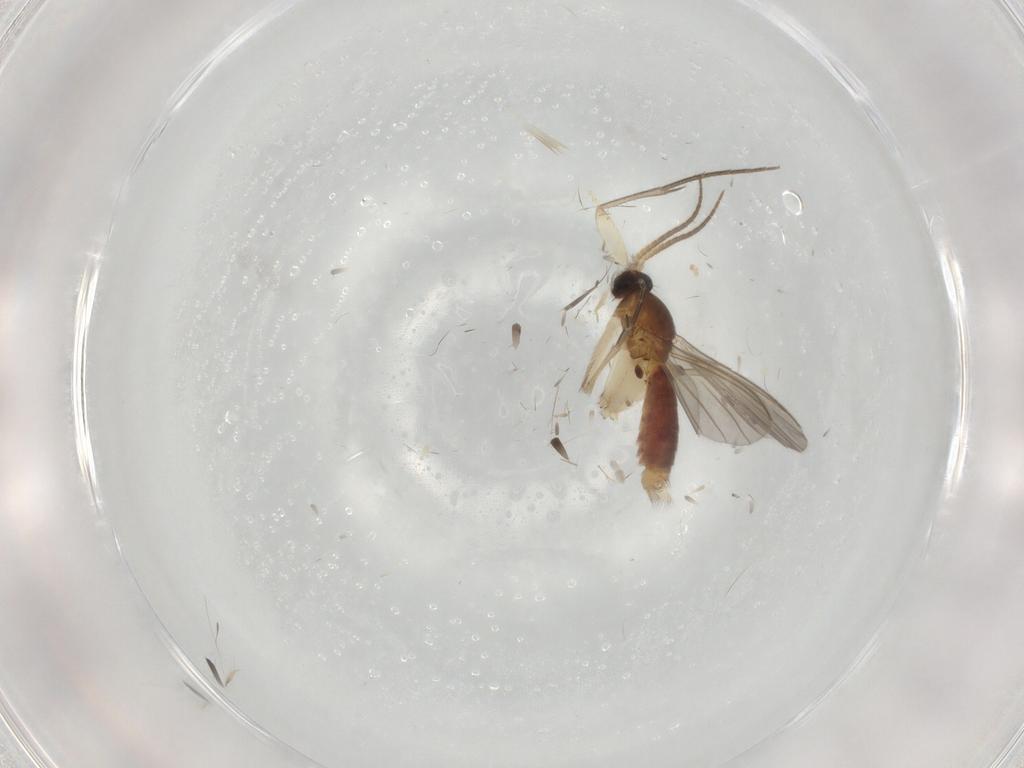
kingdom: Animalia
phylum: Arthropoda
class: Insecta
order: Diptera
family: Mycetophilidae
